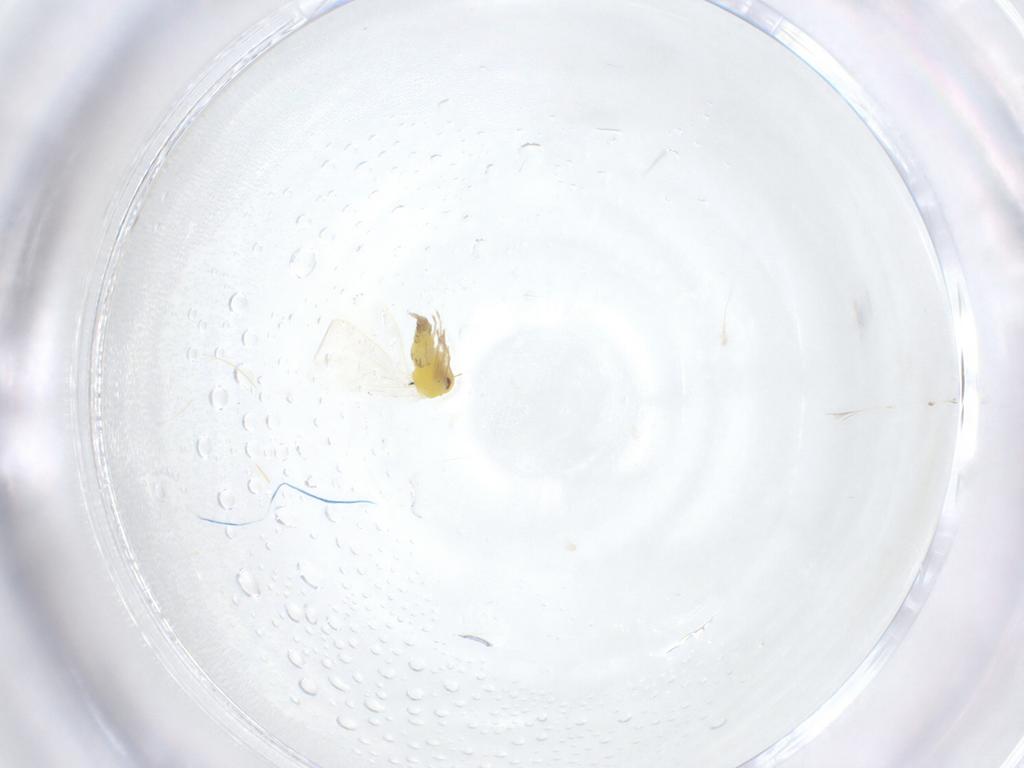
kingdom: Animalia
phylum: Arthropoda
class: Insecta
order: Hemiptera
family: Aleyrodidae
